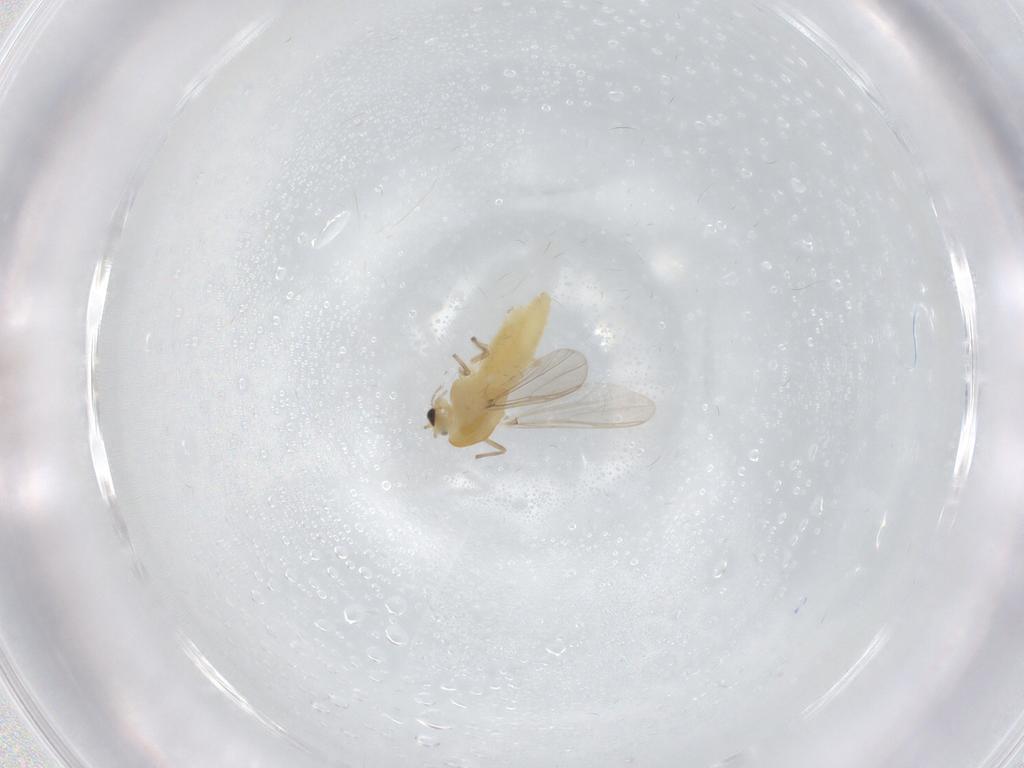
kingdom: Animalia
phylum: Arthropoda
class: Insecta
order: Diptera
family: Chironomidae
